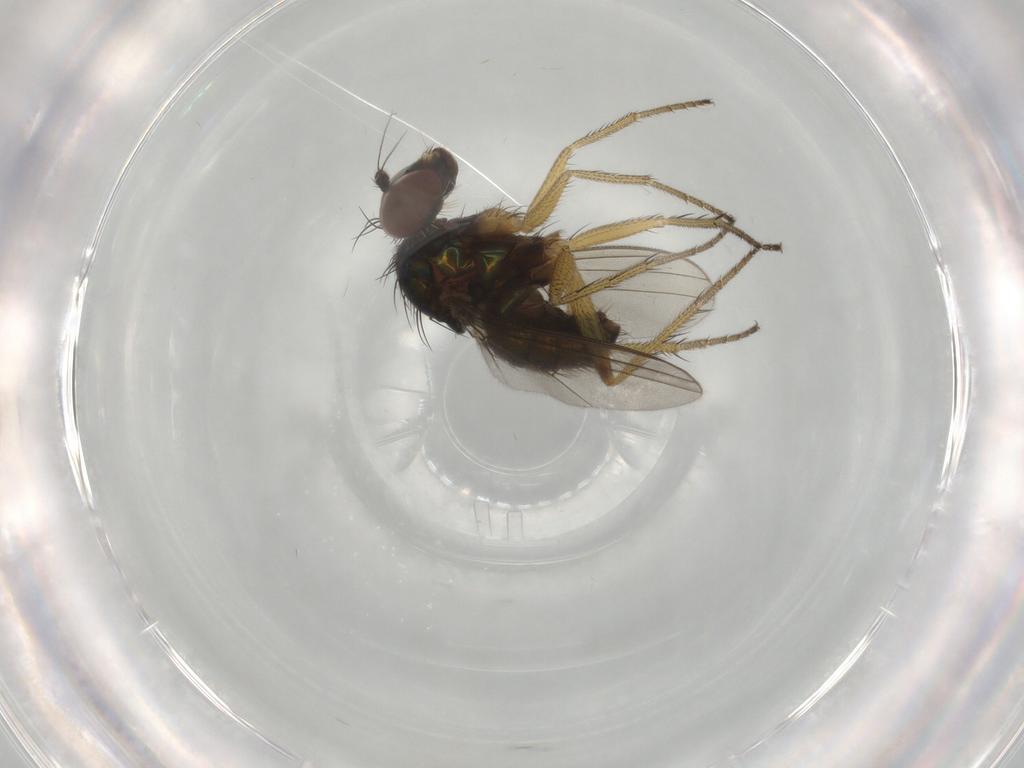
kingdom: Animalia
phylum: Arthropoda
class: Insecta
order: Diptera
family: Dolichopodidae
